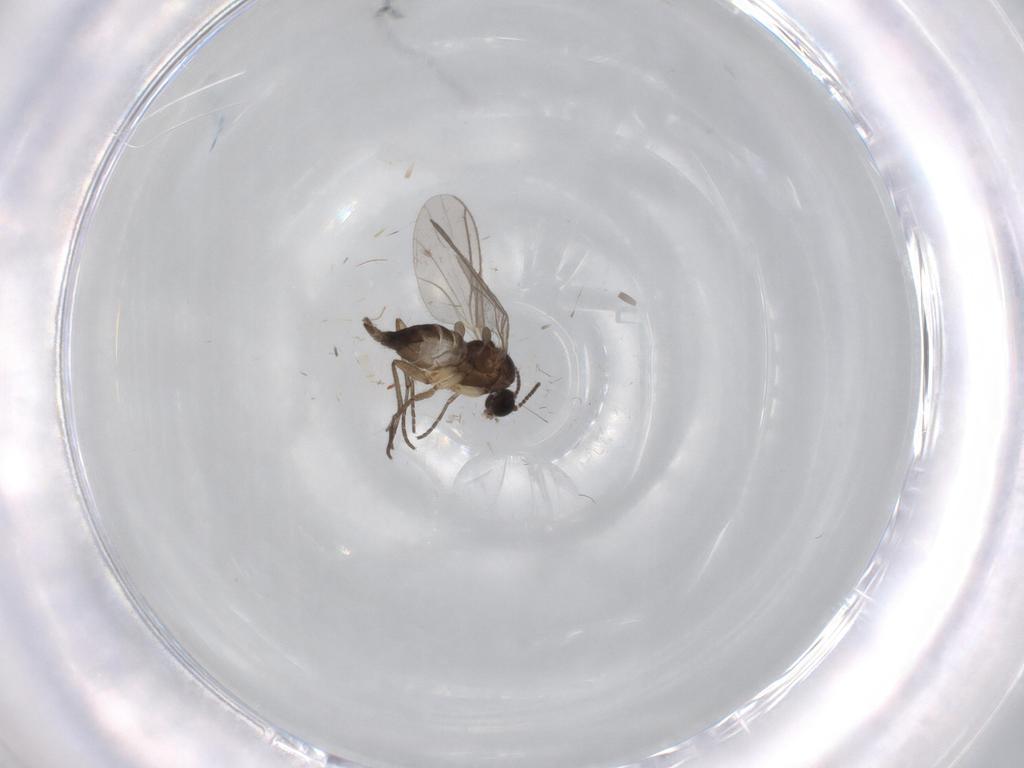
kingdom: Animalia
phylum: Arthropoda
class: Insecta
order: Diptera
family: Sciaridae
